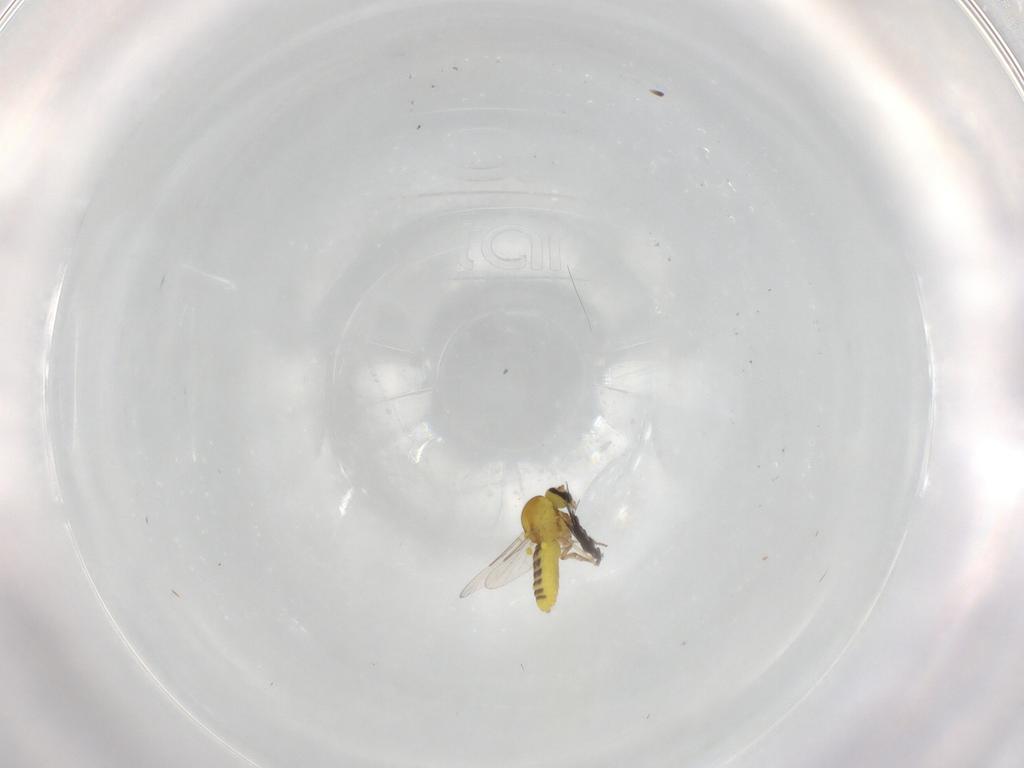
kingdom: Animalia
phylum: Arthropoda
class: Insecta
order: Diptera
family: Ceratopogonidae
